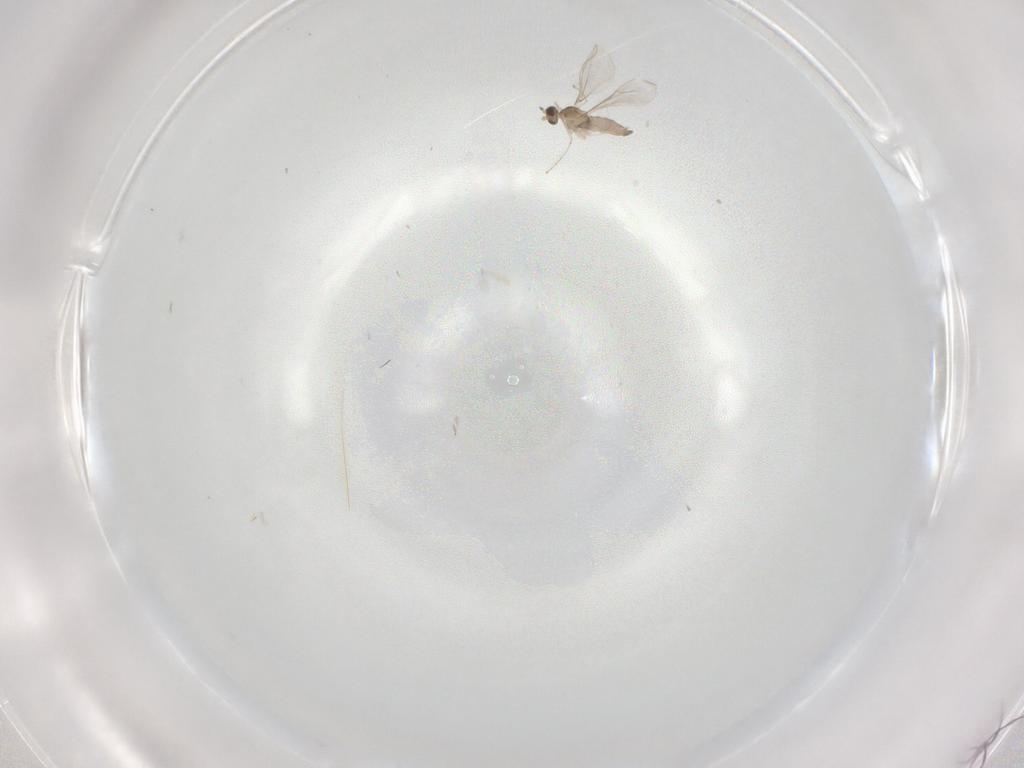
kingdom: Animalia
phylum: Arthropoda
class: Insecta
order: Diptera
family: Cecidomyiidae
